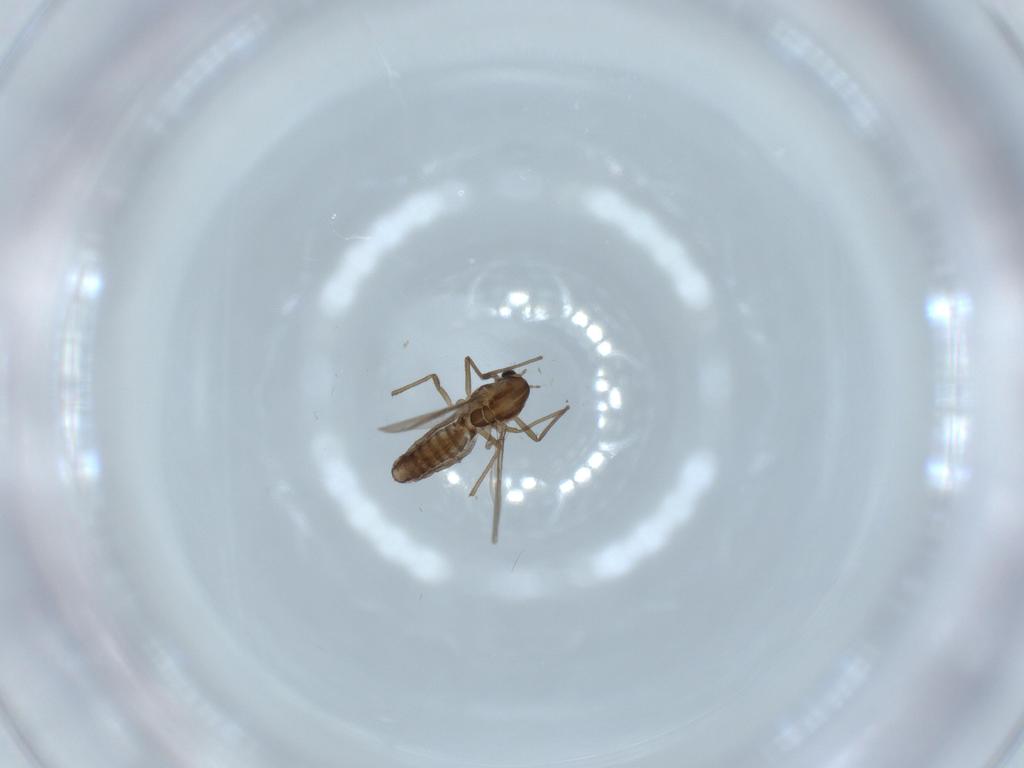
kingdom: Animalia
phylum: Arthropoda
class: Insecta
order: Diptera
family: Chironomidae
